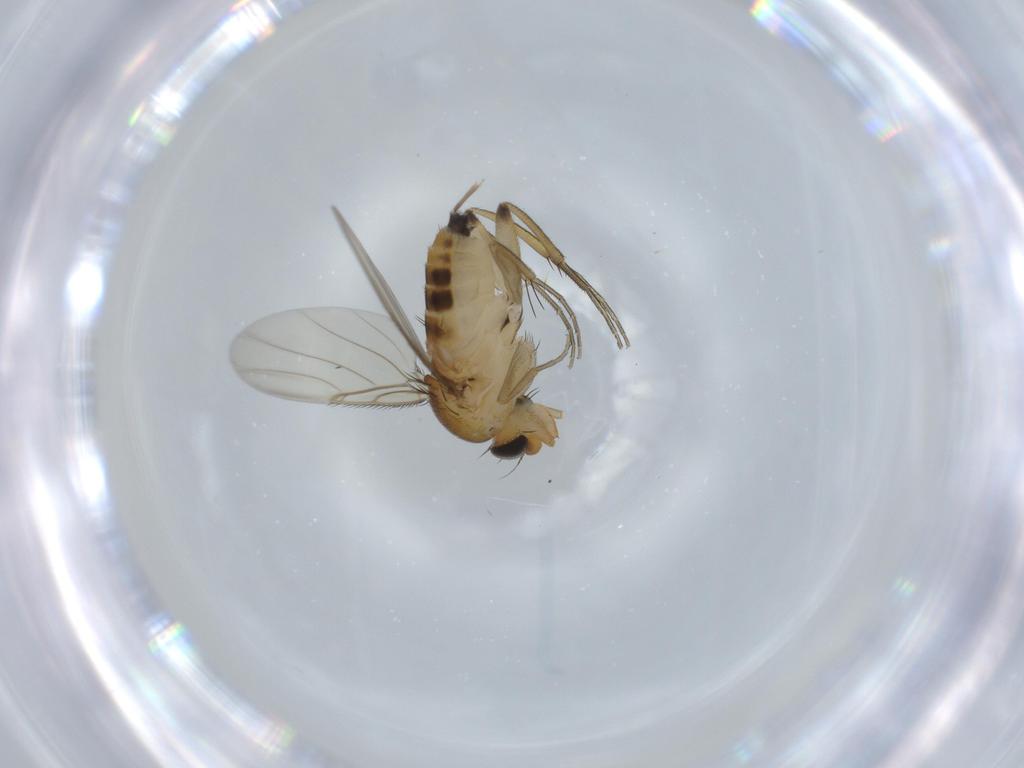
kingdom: Animalia
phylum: Arthropoda
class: Insecta
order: Diptera
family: Phoridae
